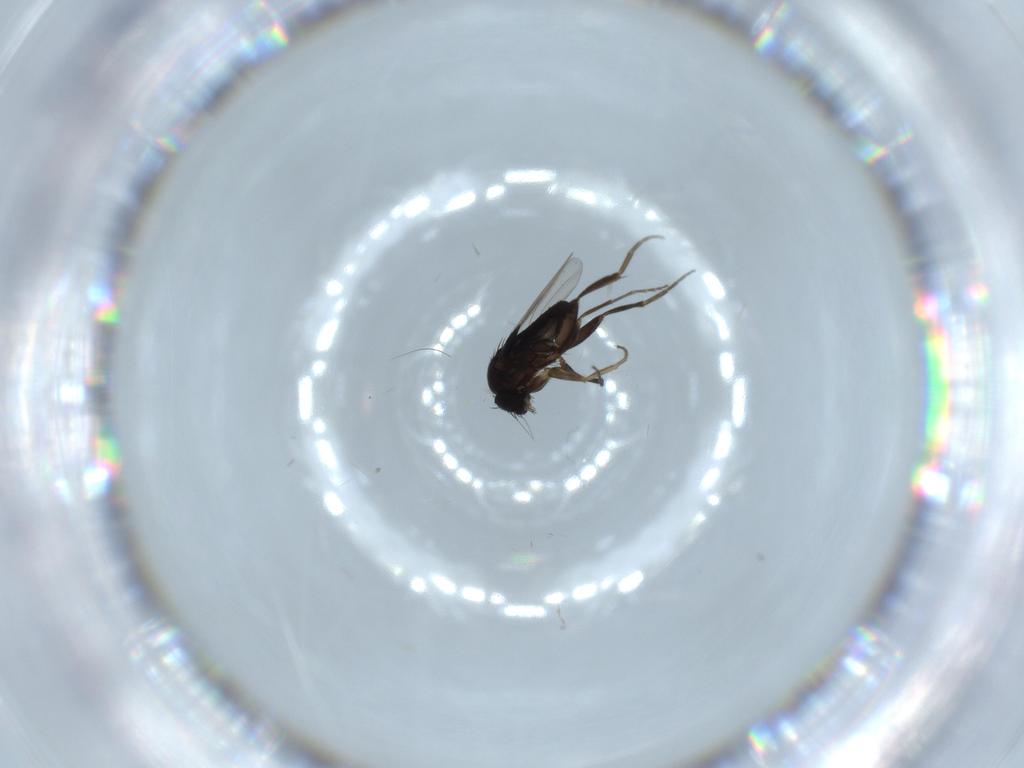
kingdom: Animalia
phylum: Arthropoda
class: Insecta
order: Diptera
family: Phoridae
